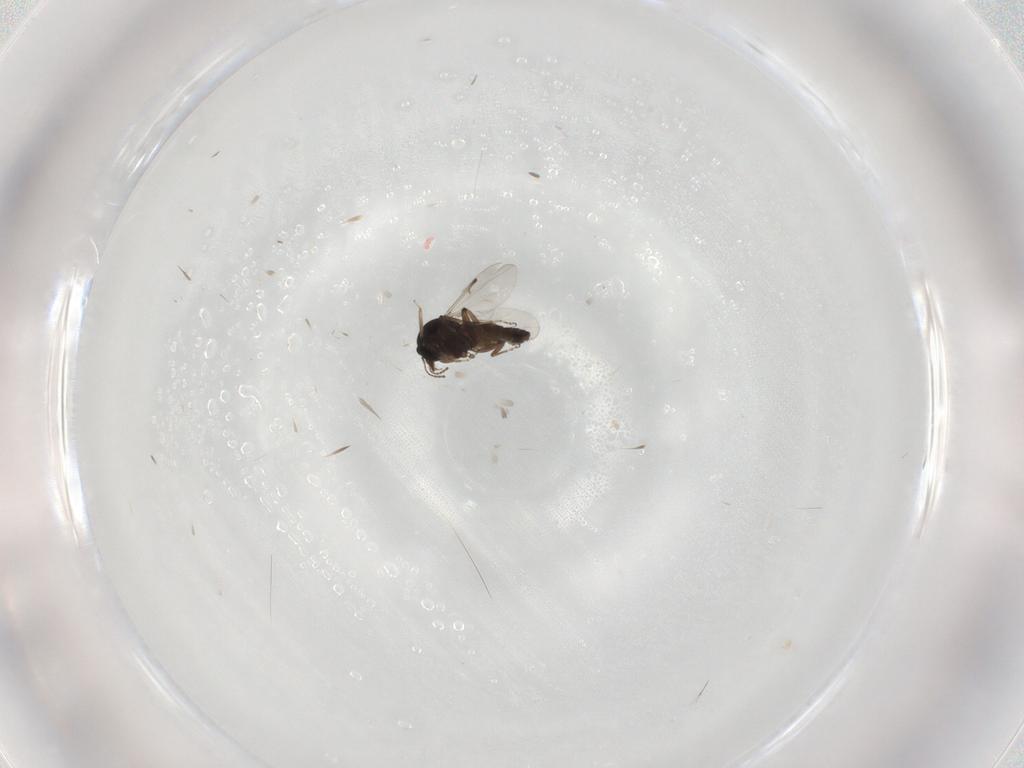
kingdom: Animalia
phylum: Arthropoda
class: Insecta
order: Diptera
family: Ceratopogonidae
